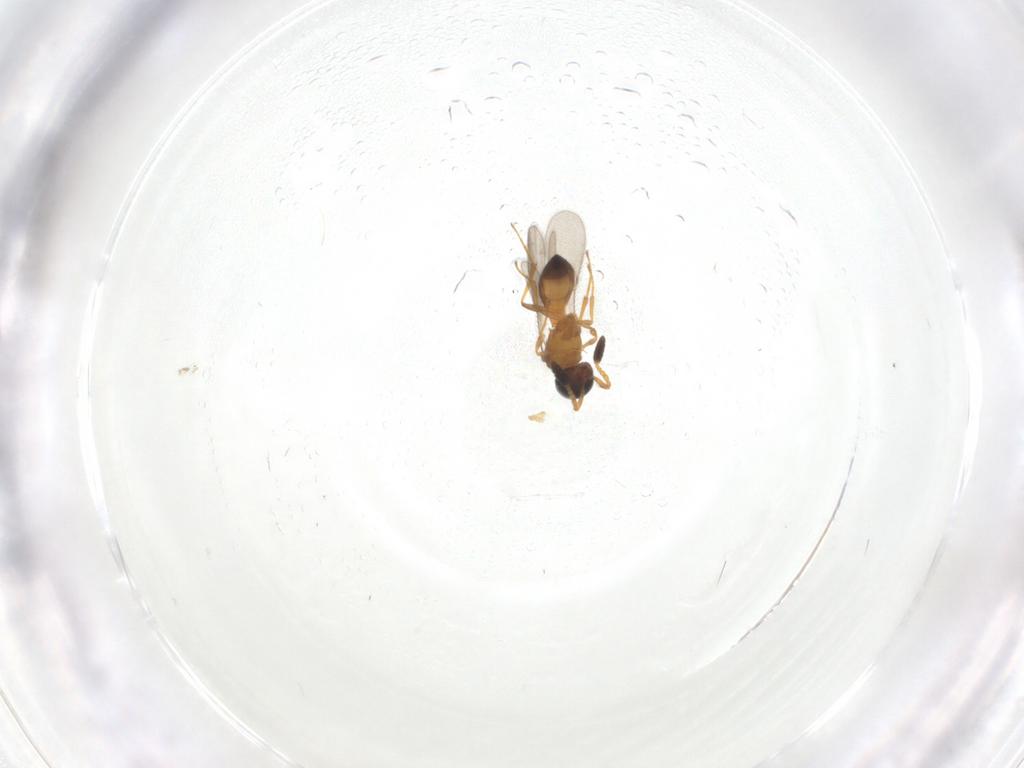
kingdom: Animalia
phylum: Arthropoda
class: Insecta
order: Hymenoptera
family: Scelionidae
